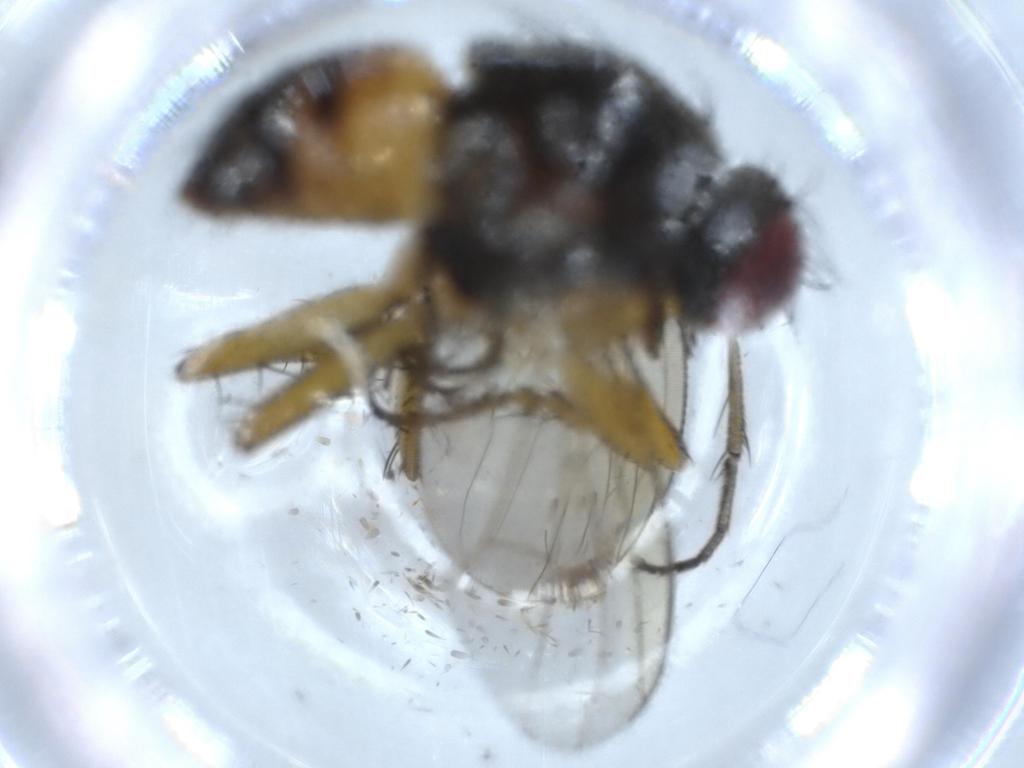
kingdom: Animalia
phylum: Arthropoda
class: Insecta
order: Diptera
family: Muscidae
